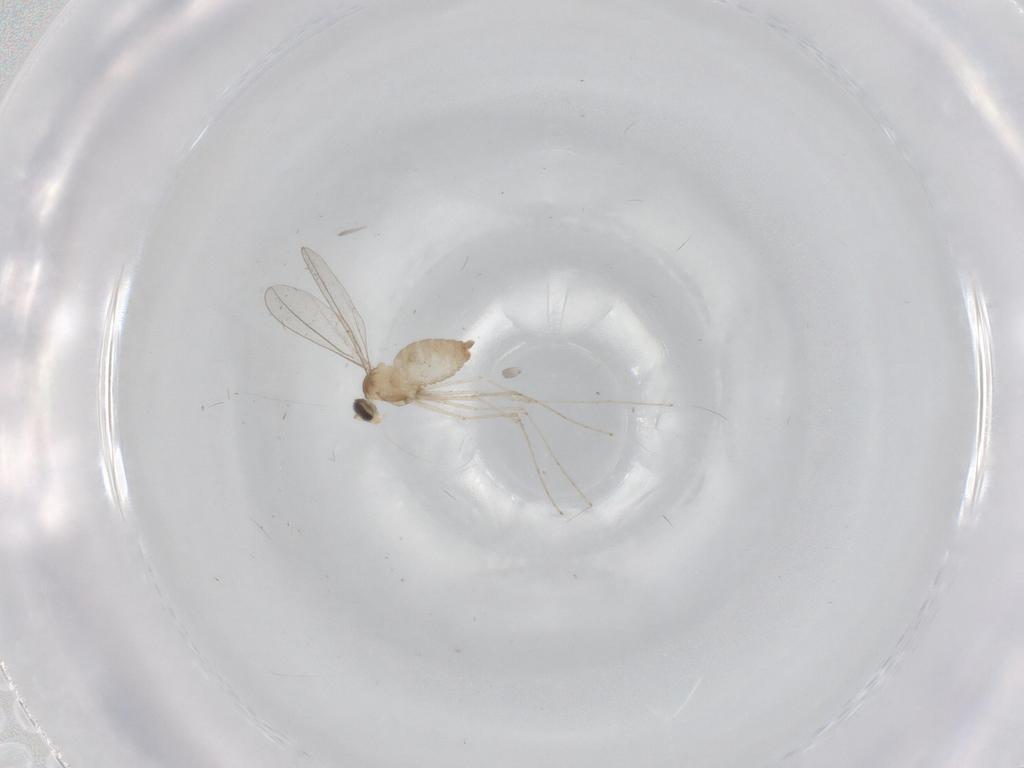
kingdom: Animalia
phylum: Arthropoda
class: Insecta
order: Diptera
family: Cecidomyiidae
